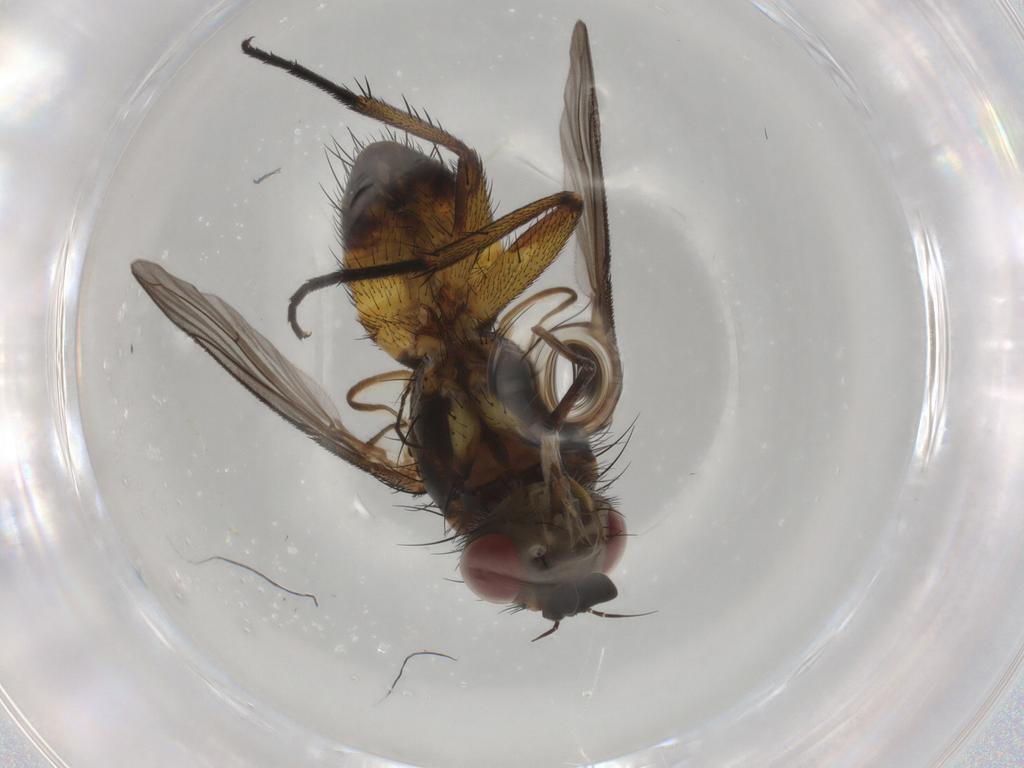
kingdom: Animalia
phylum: Arthropoda
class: Insecta
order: Diptera
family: Tachinidae
